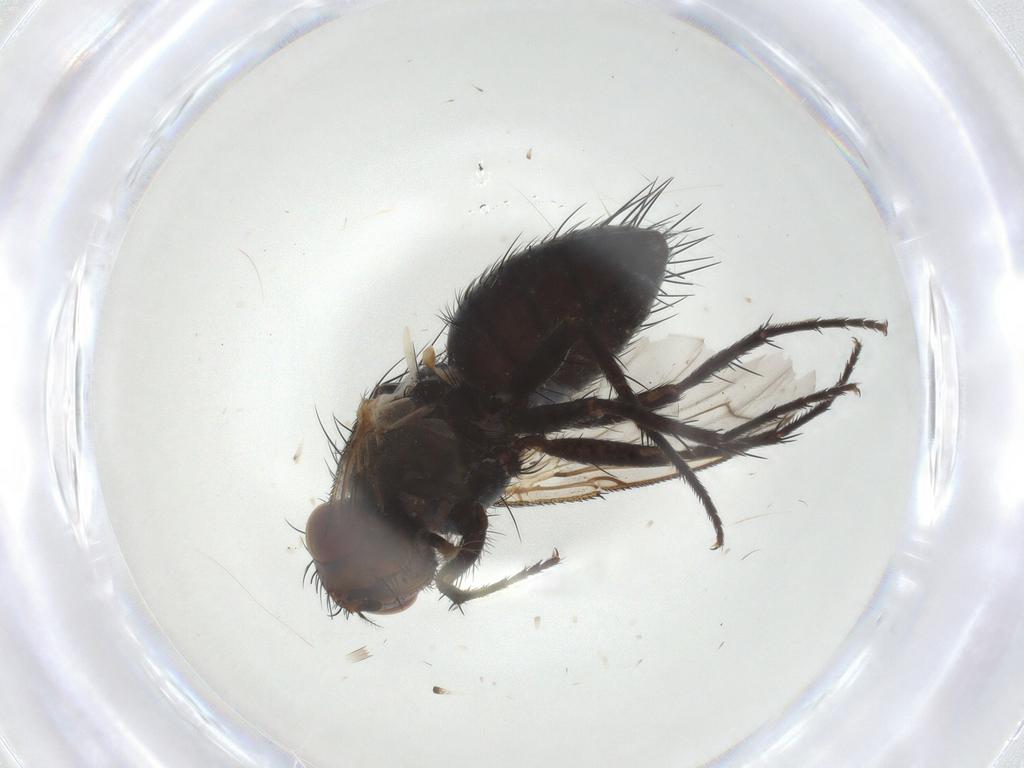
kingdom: Animalia
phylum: Arthropoda
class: Insecta
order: Diptera
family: Tachinidae
